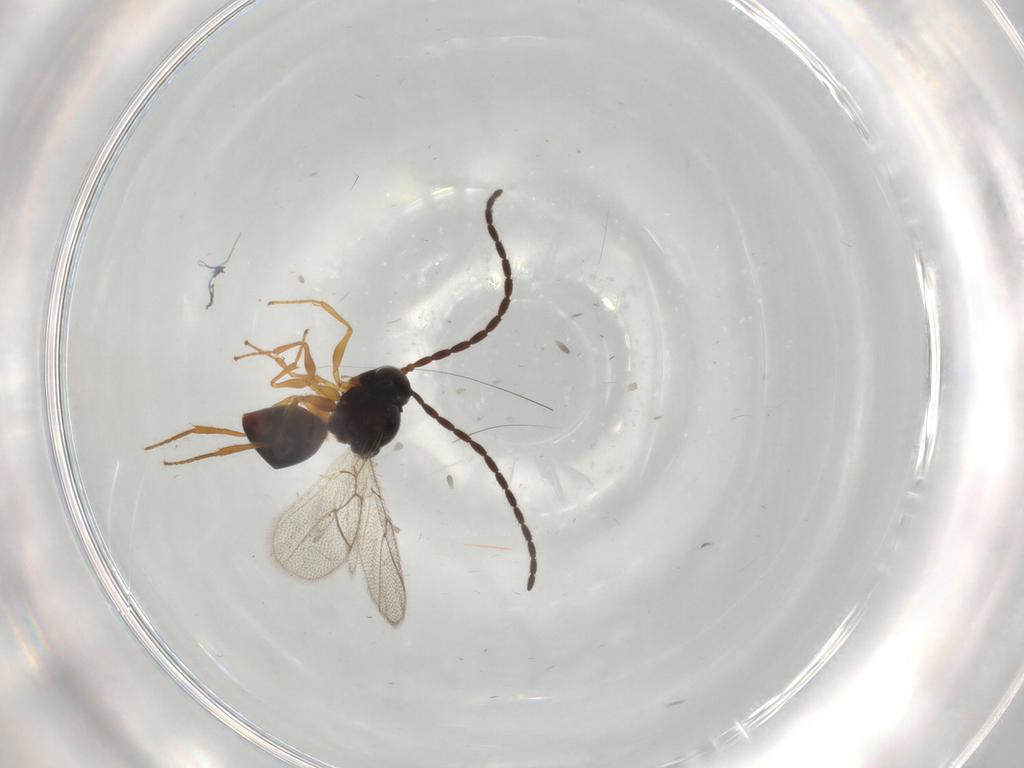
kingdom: Animalia
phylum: Arthropoda
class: Insecta
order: Hymenoptera
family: Figitidae
